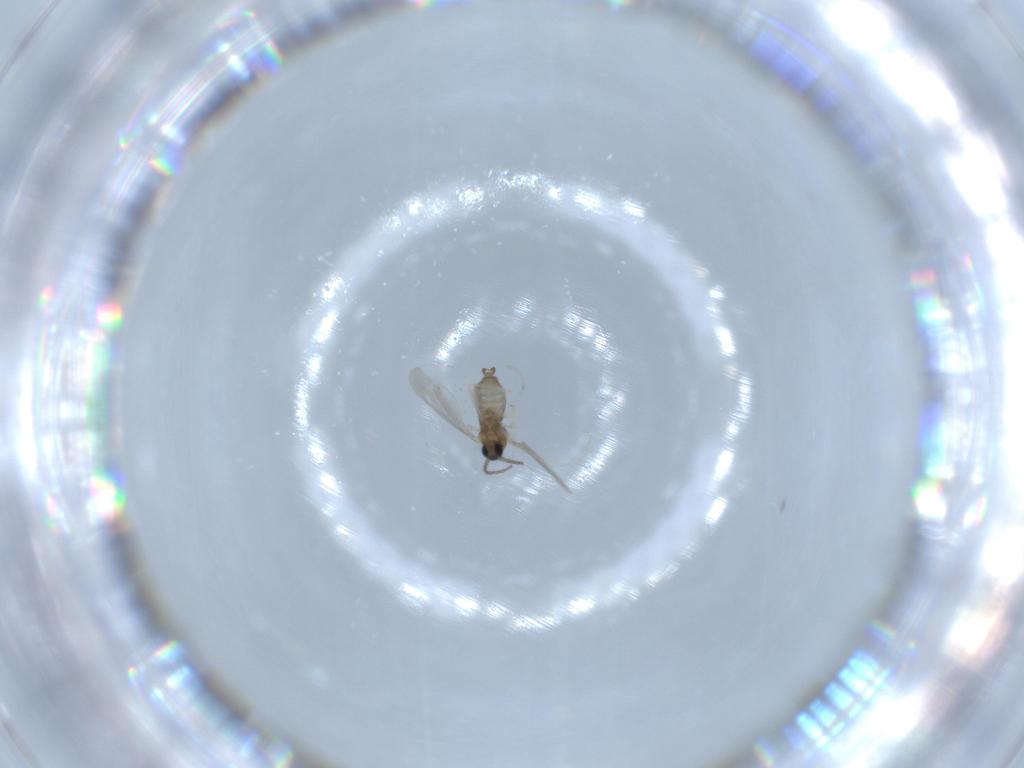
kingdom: Animalia
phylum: Arthropoda
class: Insecta
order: Diptera
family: Cecidomyiidae
